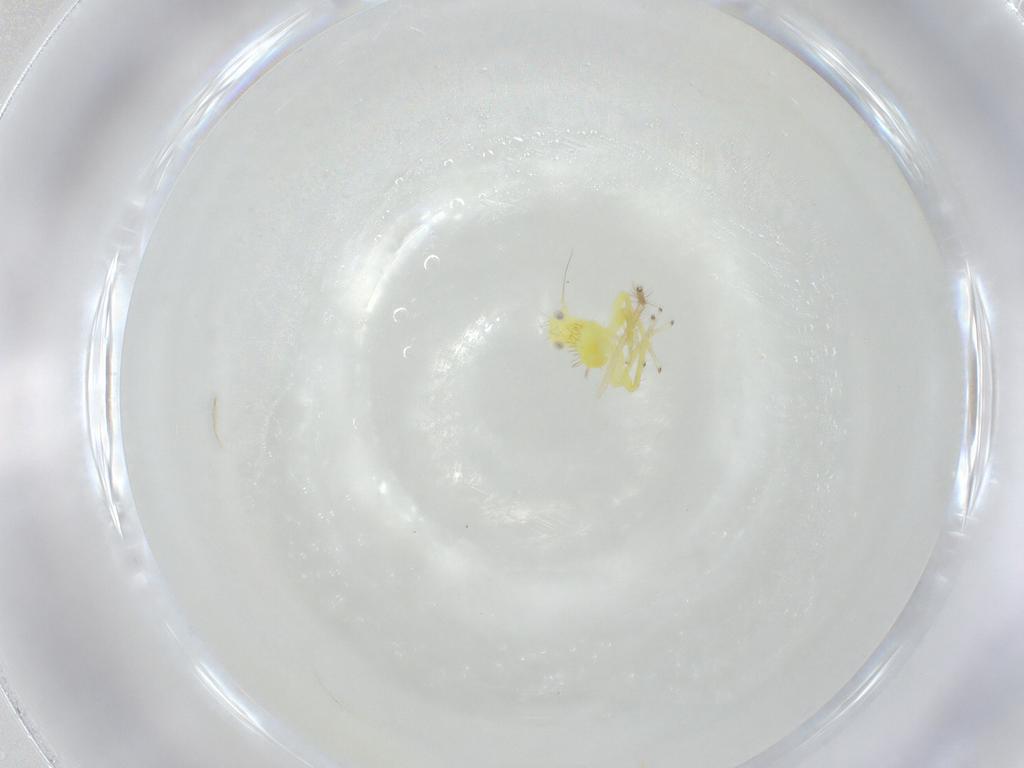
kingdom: Animalia
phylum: Arthropoda
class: Insecta
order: Hemiptera
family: Cicadellidae
